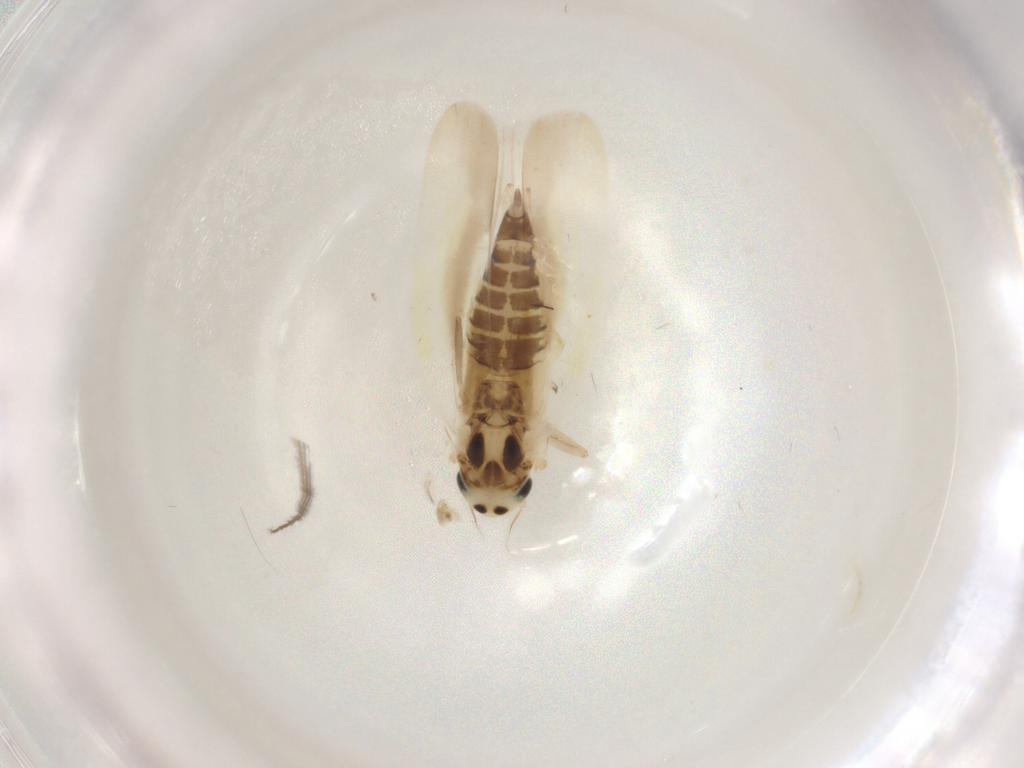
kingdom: Animalia
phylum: Arthropoda
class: Insecta
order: Hemiptera
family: Cicadellidae
